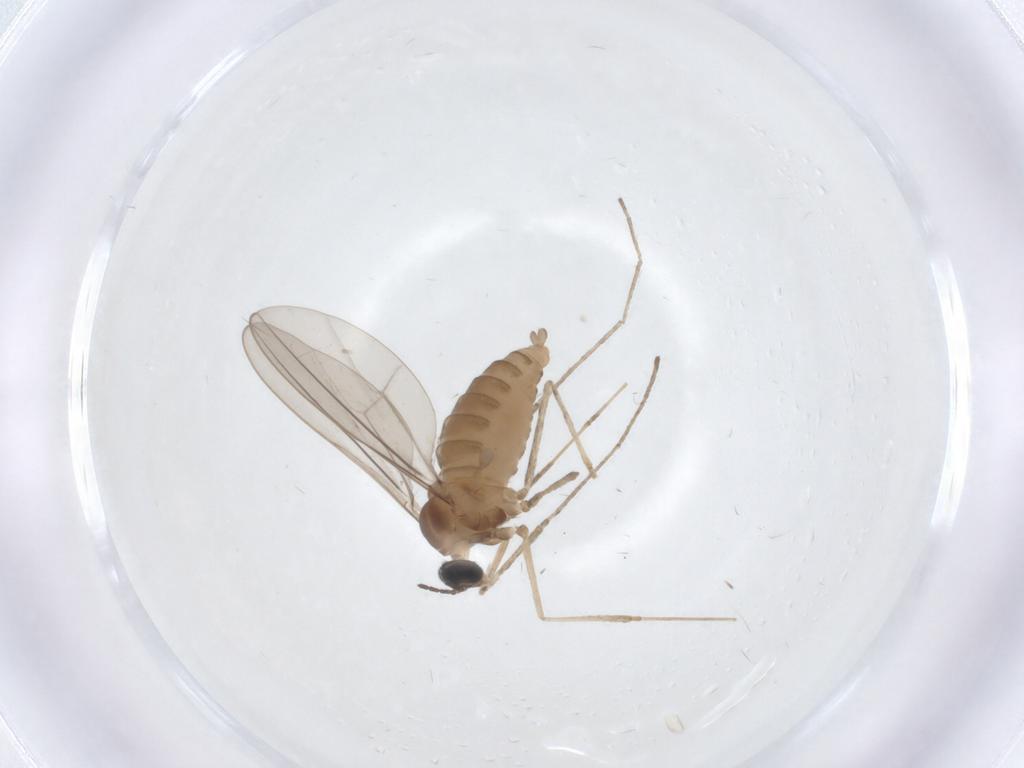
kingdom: Animalia
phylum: Arthropoda
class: Insecta
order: Diptera
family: Cecidomyiidae
